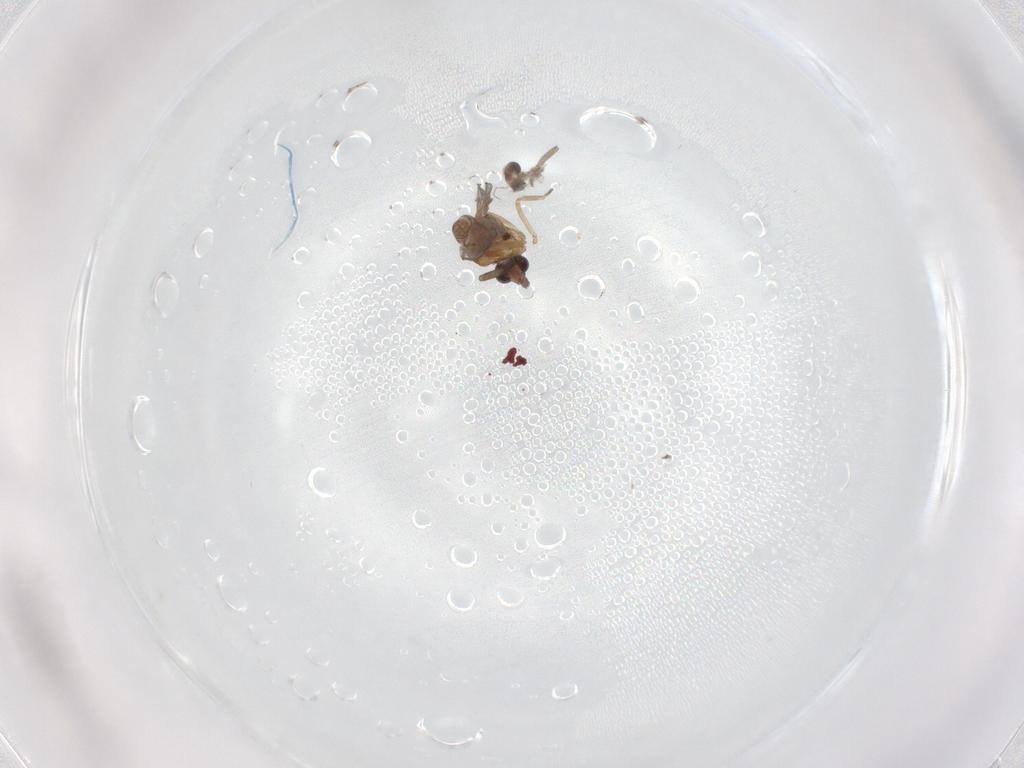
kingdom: Animalia
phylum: Arthropoda
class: Insecta
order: Diptera
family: Ceratopogonidae
